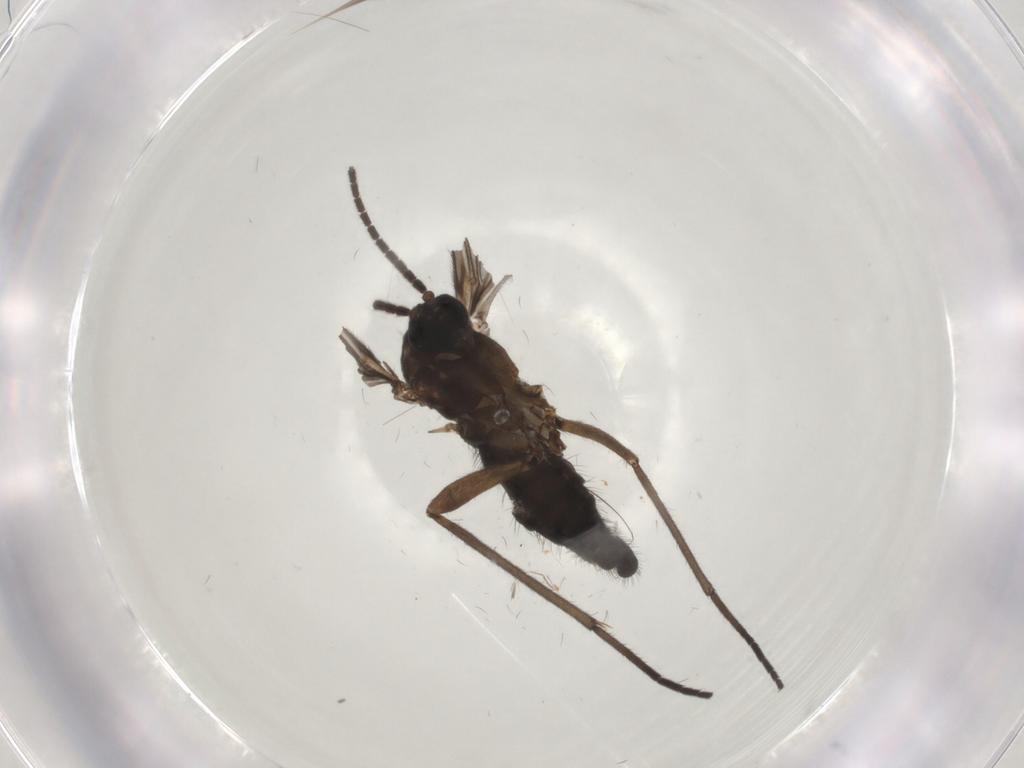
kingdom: Animalia
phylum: Arthropoda
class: Insecta
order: Diptera
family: Sciaridae
